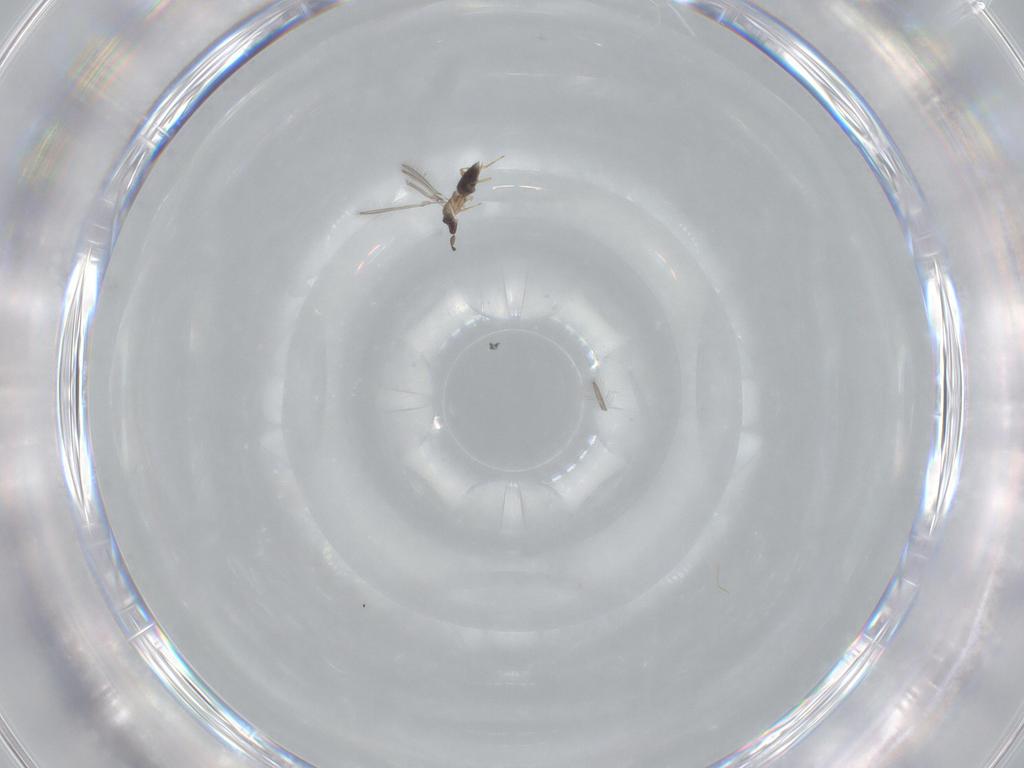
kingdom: Animalia
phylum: Arthropoda
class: Insecta
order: Hymenoptera
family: Mymaridae
